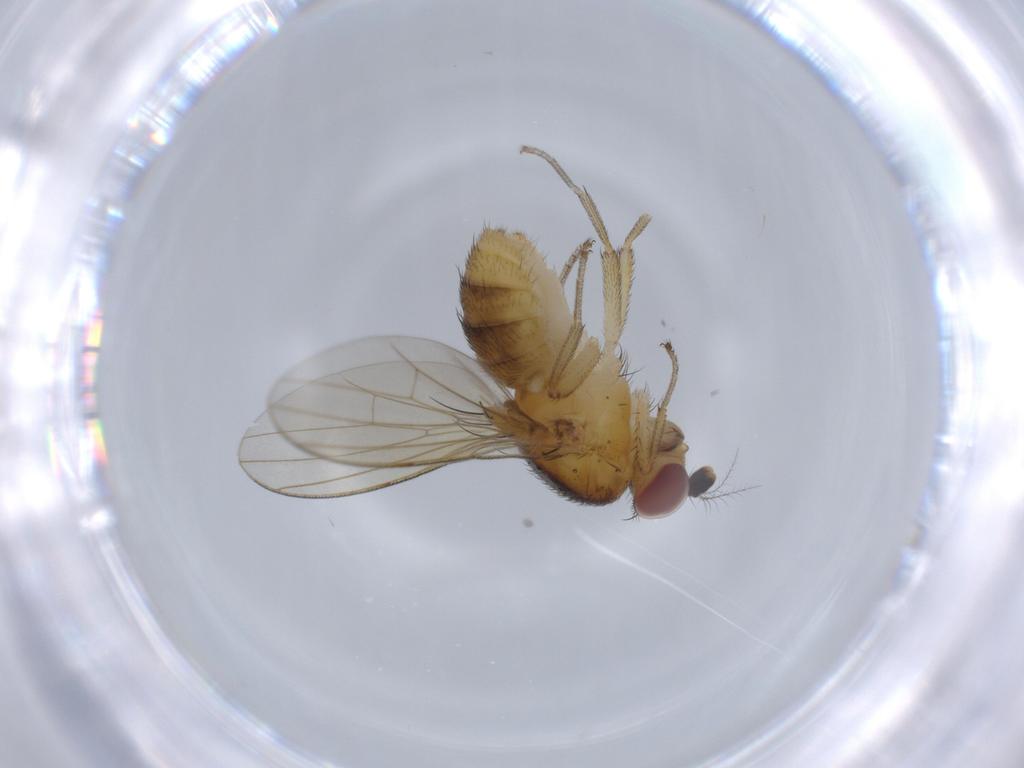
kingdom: Animalia
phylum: Arthropoda
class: Insecta
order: Diptera
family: Lauxaniidae
